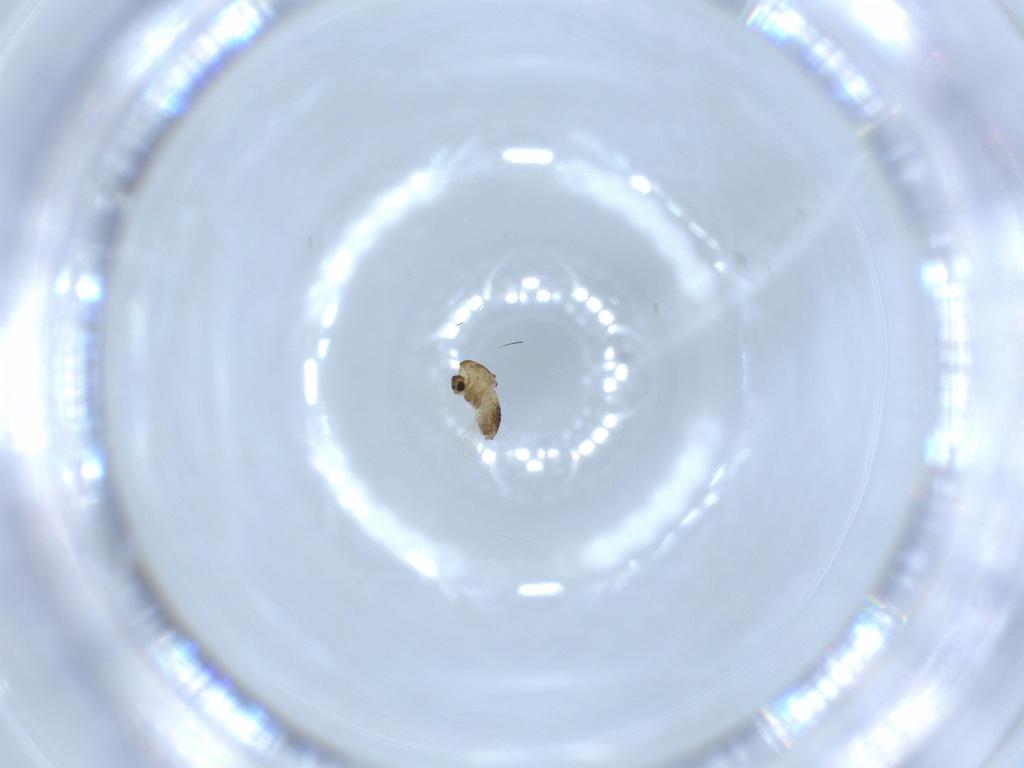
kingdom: Animalia
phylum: Arthropoda
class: Insecta
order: Diptera
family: Chironomidae
